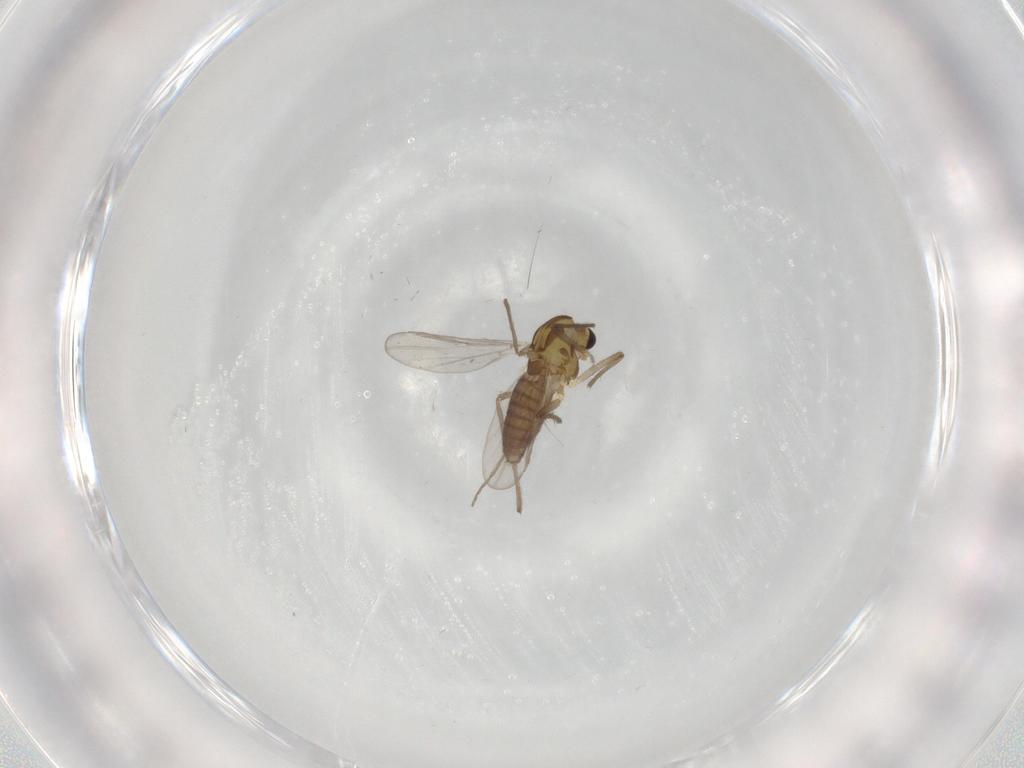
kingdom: Animalia
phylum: Arthropoda
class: Insecta
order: Diptera
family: Chironomidae
